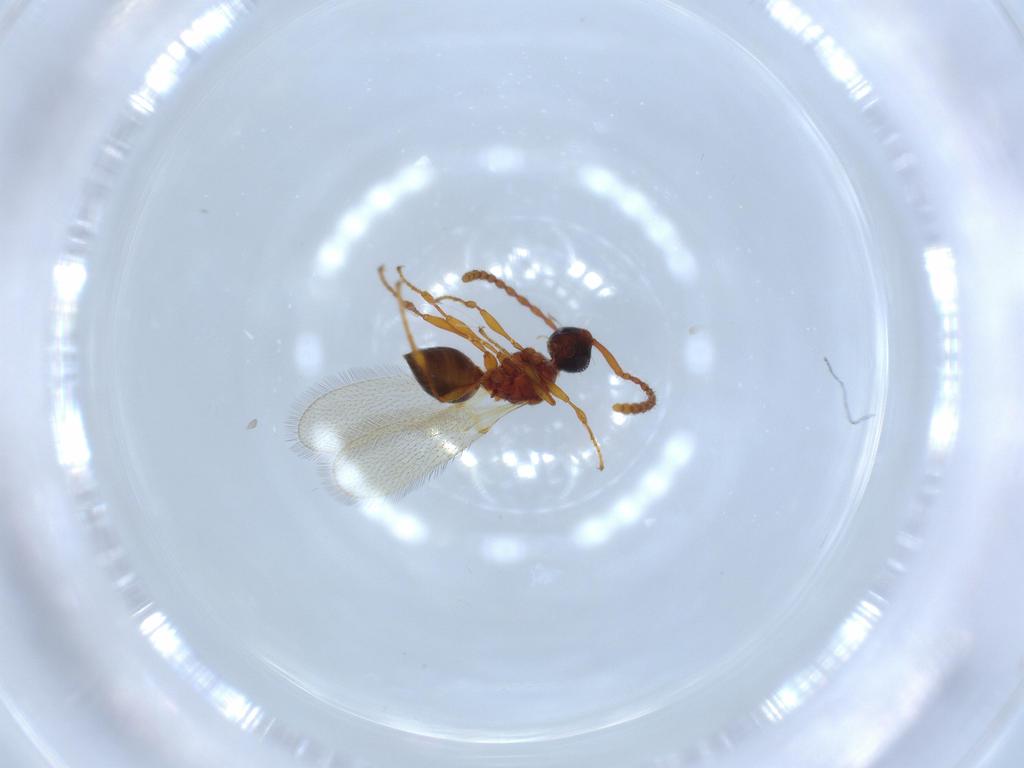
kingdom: Animalia
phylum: Arthropoda
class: Insecta
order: Hymenoptera
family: Diapriidae
